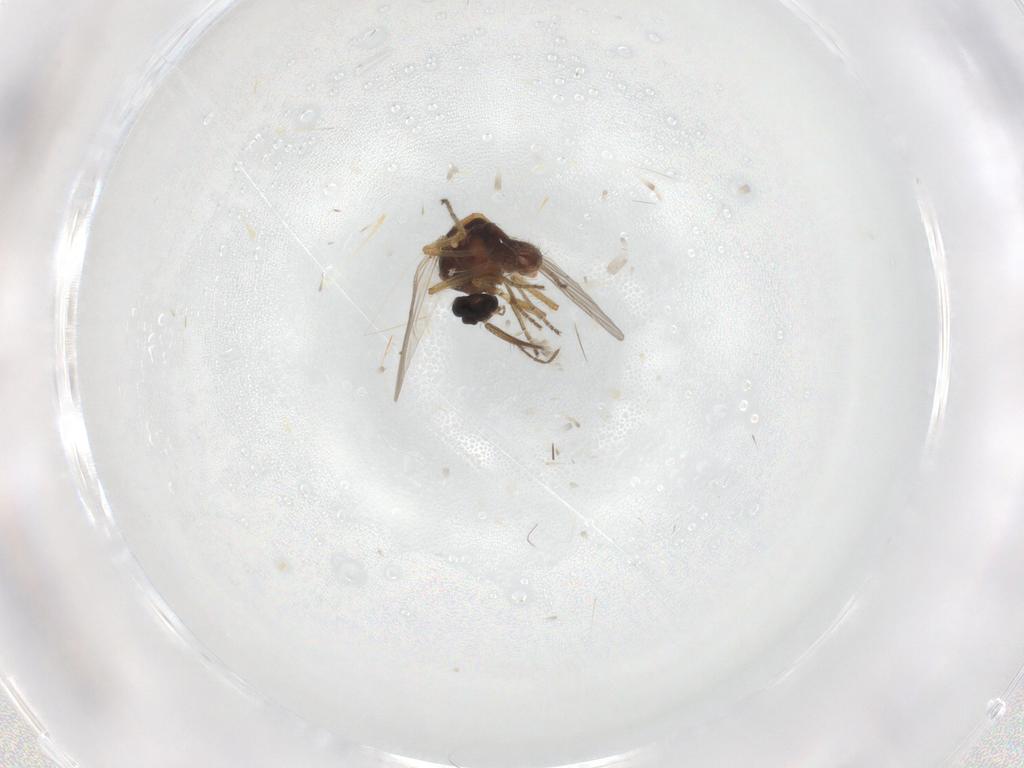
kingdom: Animalia
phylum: Arthropoda
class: Insecta
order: Diptera
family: Ceratopogonidae
